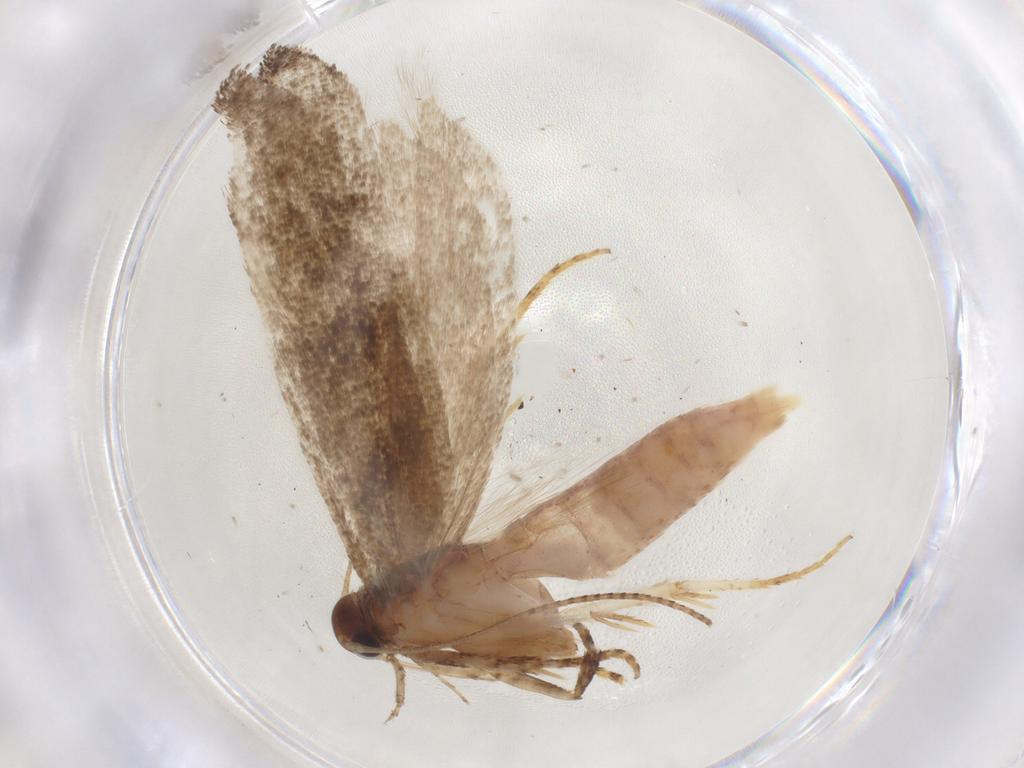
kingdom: Animalia
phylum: Arthropoda
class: Insecta
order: Lepidoptera
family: Gelechiidae
